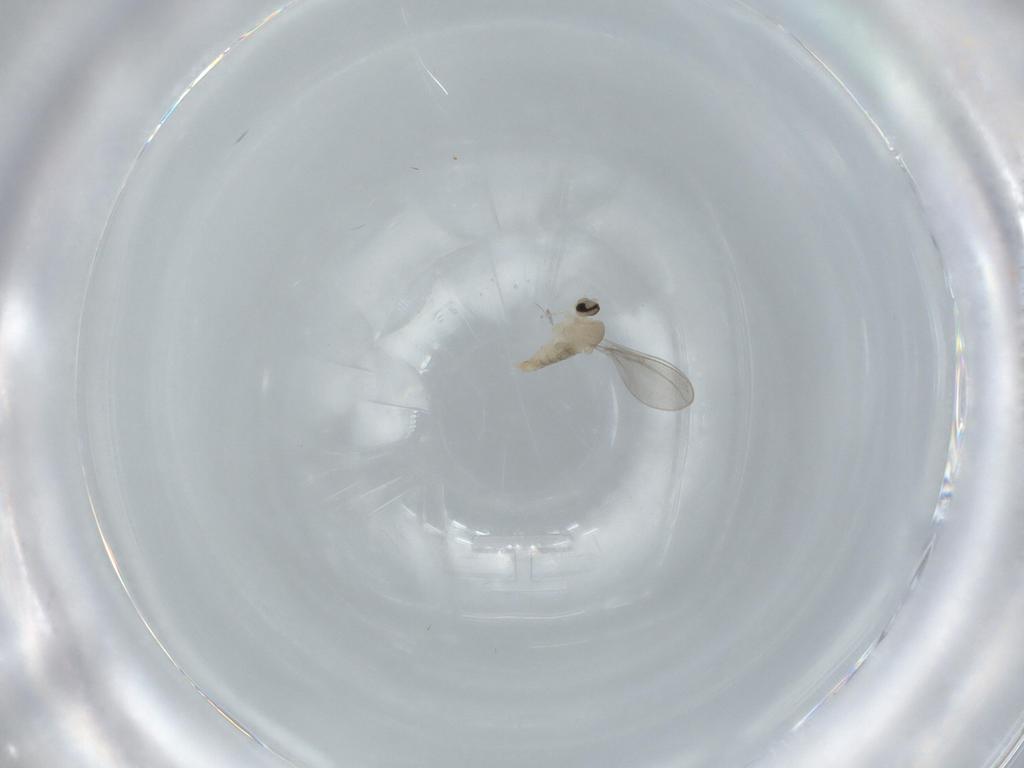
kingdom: Animalia
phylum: Arthropoda
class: Insecta
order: Diptera
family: Cecidomyiidae
